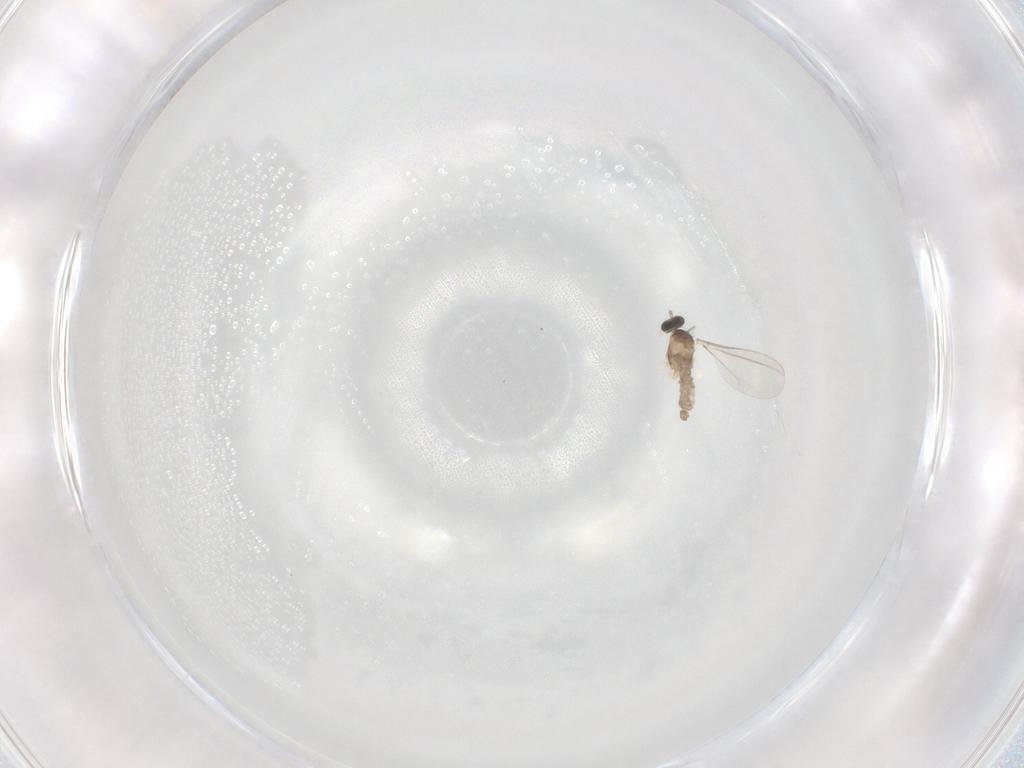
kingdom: Animalia
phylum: Arthropoda
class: Insecta
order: Diptera
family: Cecidomyiidae
